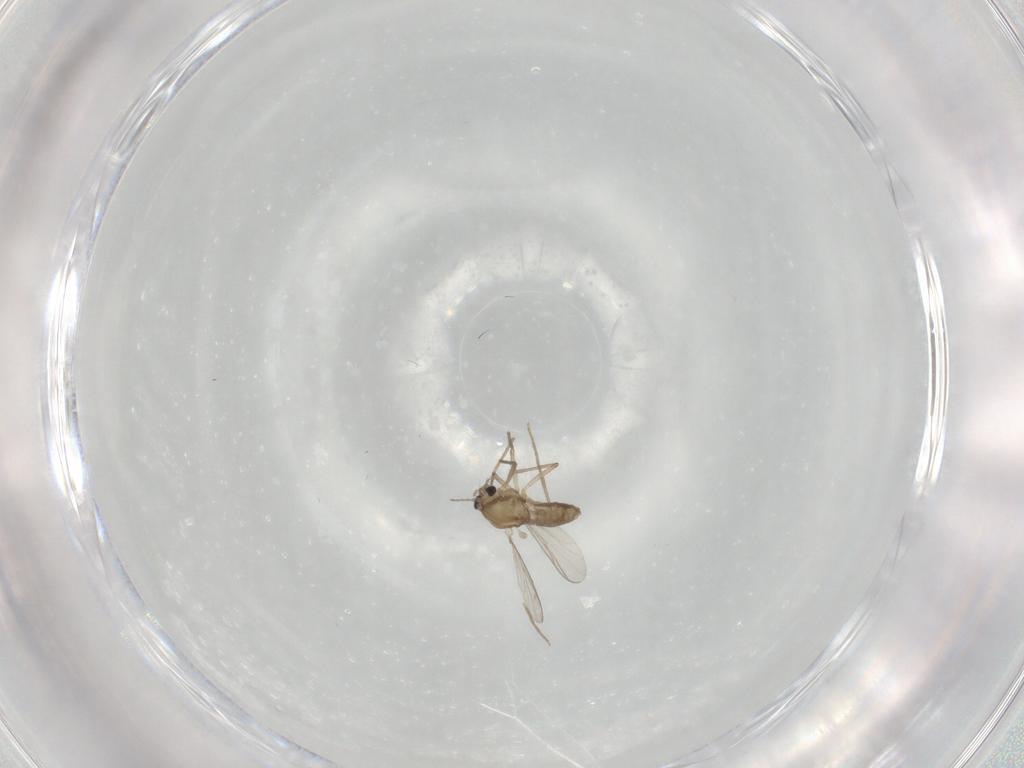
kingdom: Animalia
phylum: Arthropoda
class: Insecta
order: Diptera
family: Chironomidae
